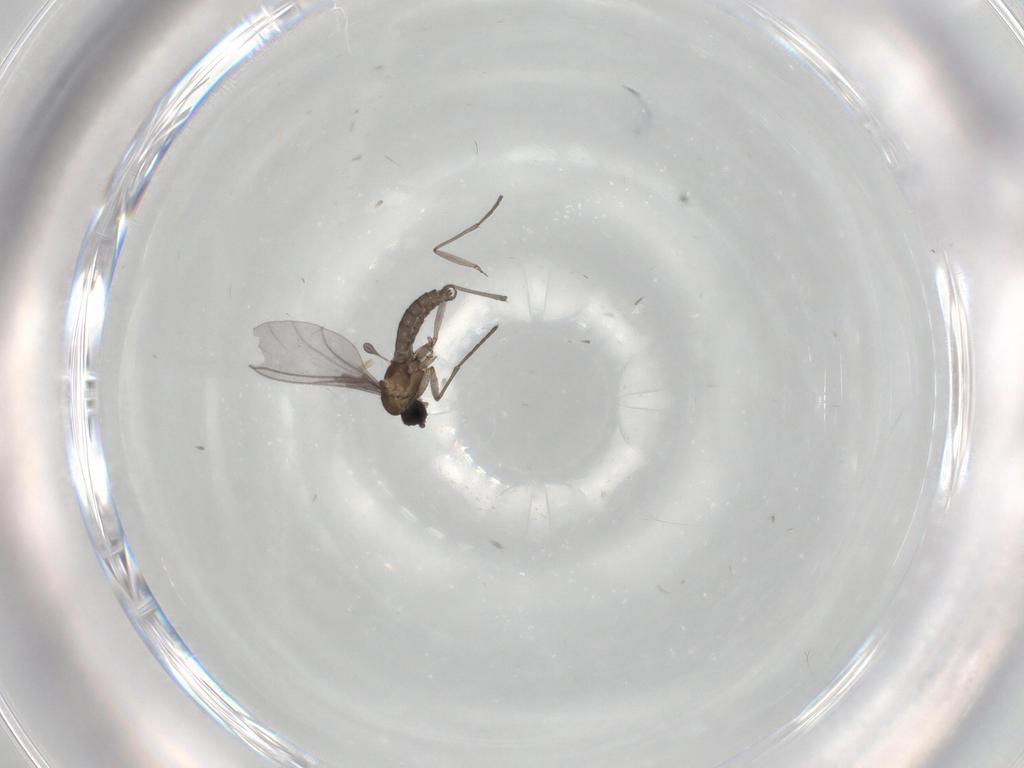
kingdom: Animalia
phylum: Arthropoda
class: Insecta
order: Diptera
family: Sciaridae
